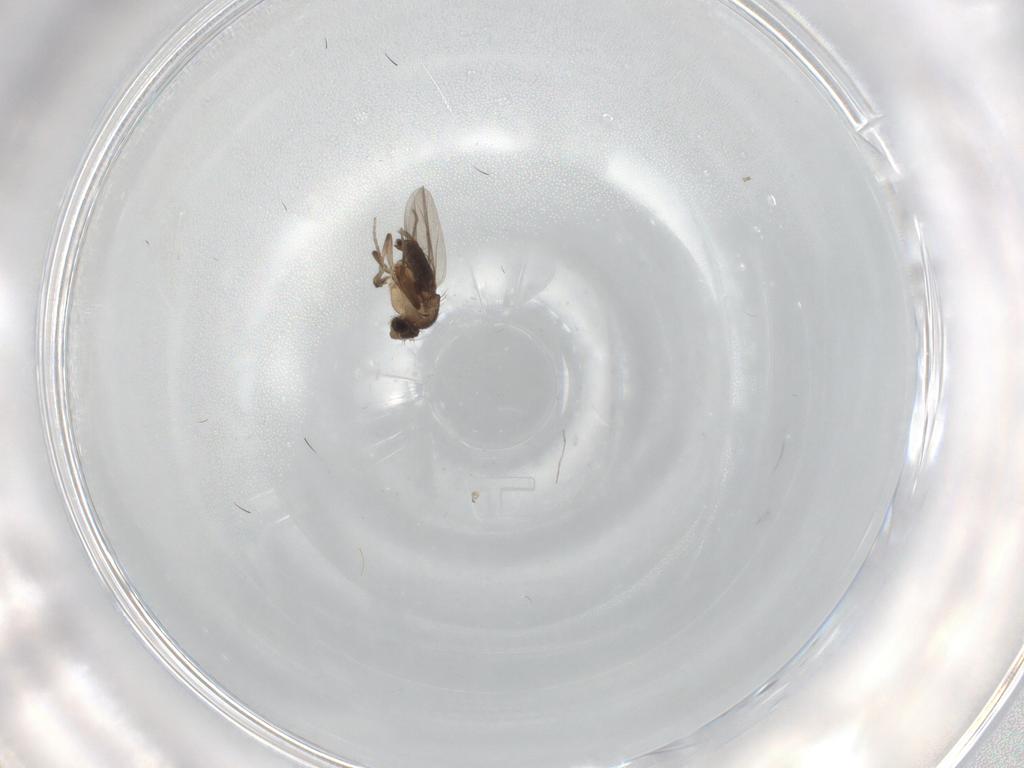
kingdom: Animalia
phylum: Arthropoda
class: Insecta
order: Diptera
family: Phoridae
